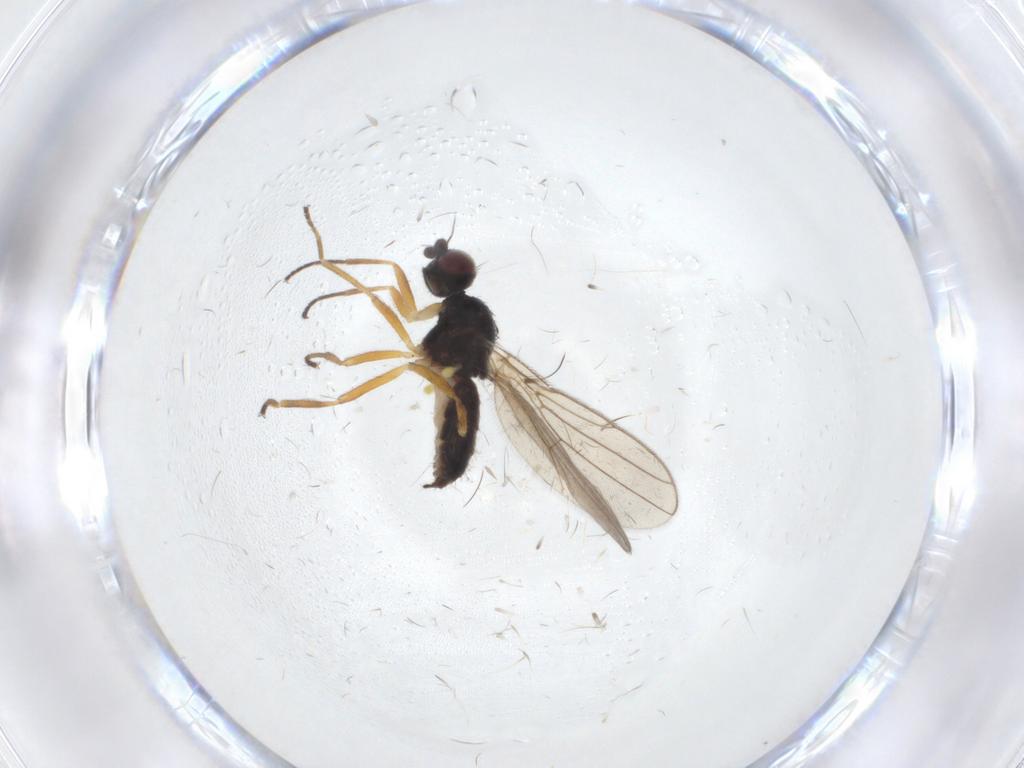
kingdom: Animalia
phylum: Arthropoda
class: Insecta
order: Diptera
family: Chloropidae
